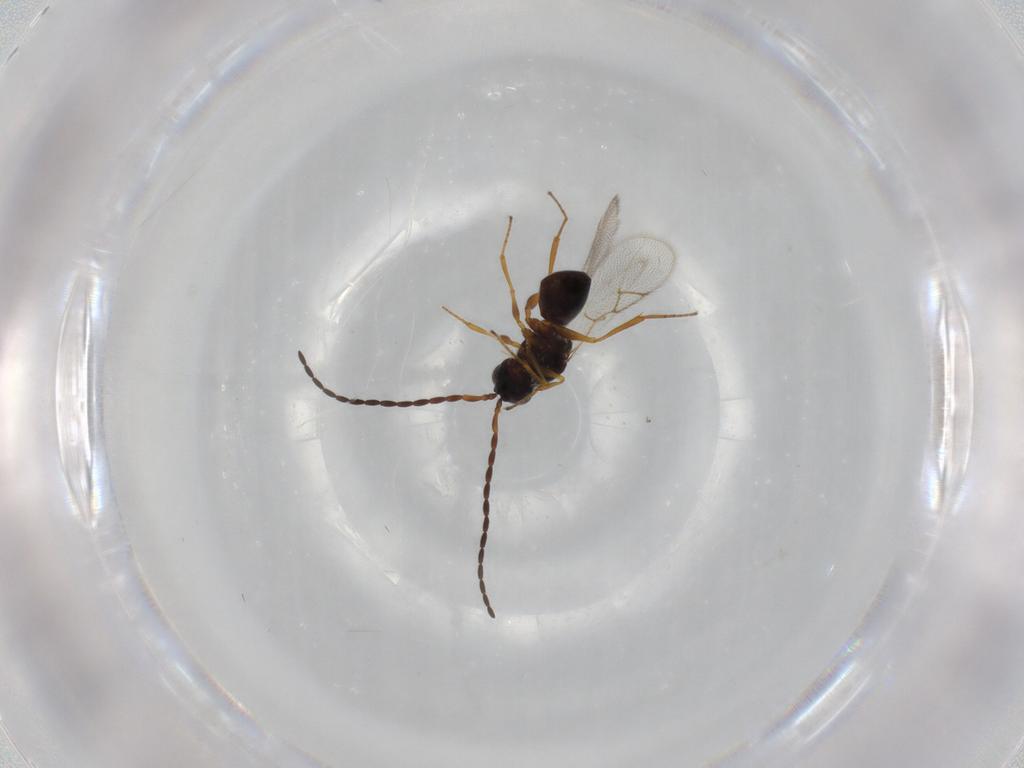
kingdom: Animalia
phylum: Arthropoda
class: Insecta
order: Hymenoptera
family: Figitidae
